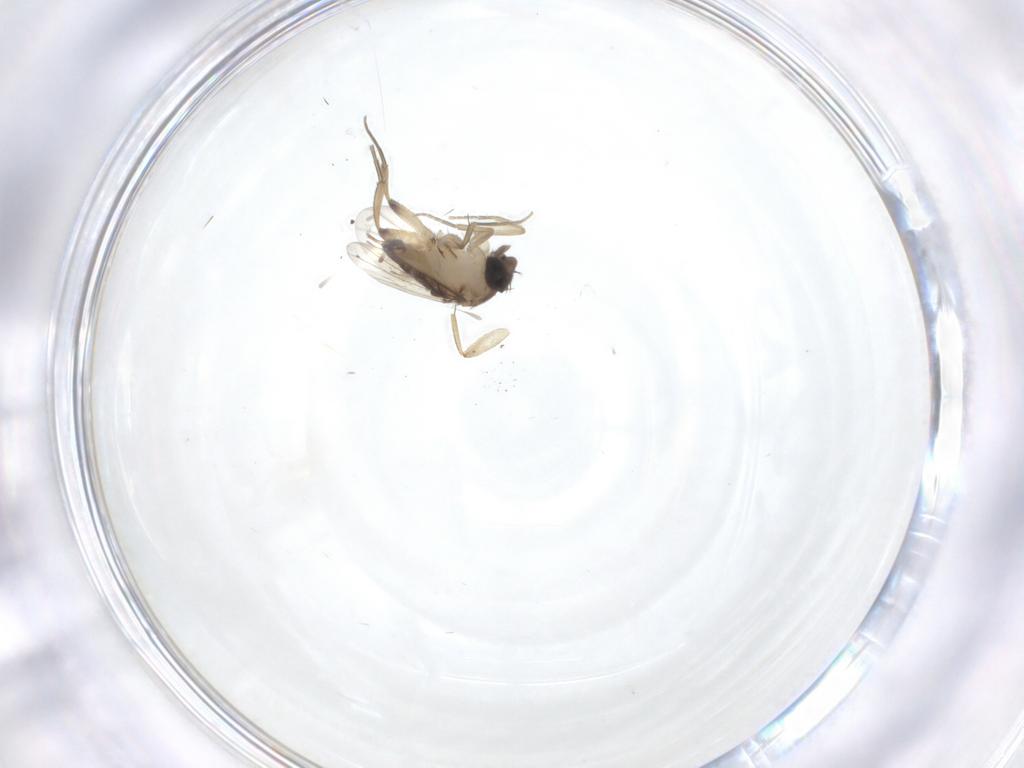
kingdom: Animalia
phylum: Arthropoda
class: Insecta
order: Diptera
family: Phoridae
